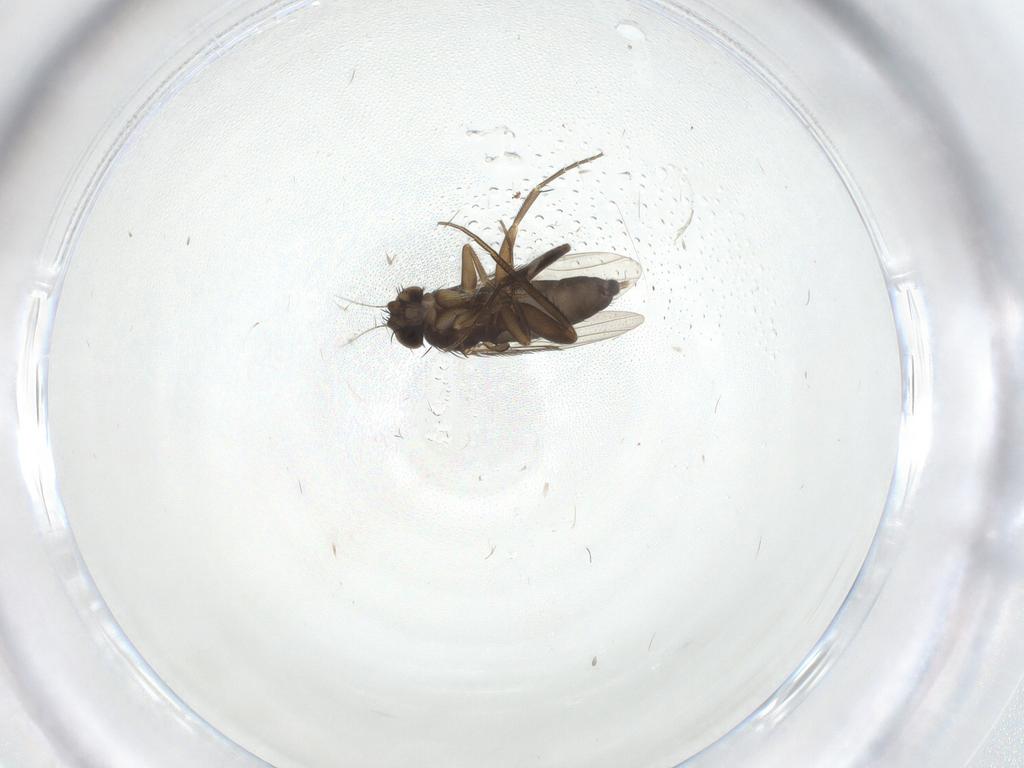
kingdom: Animalia
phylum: Arthropoda
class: Insecta
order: Diptera
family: Phoridae
